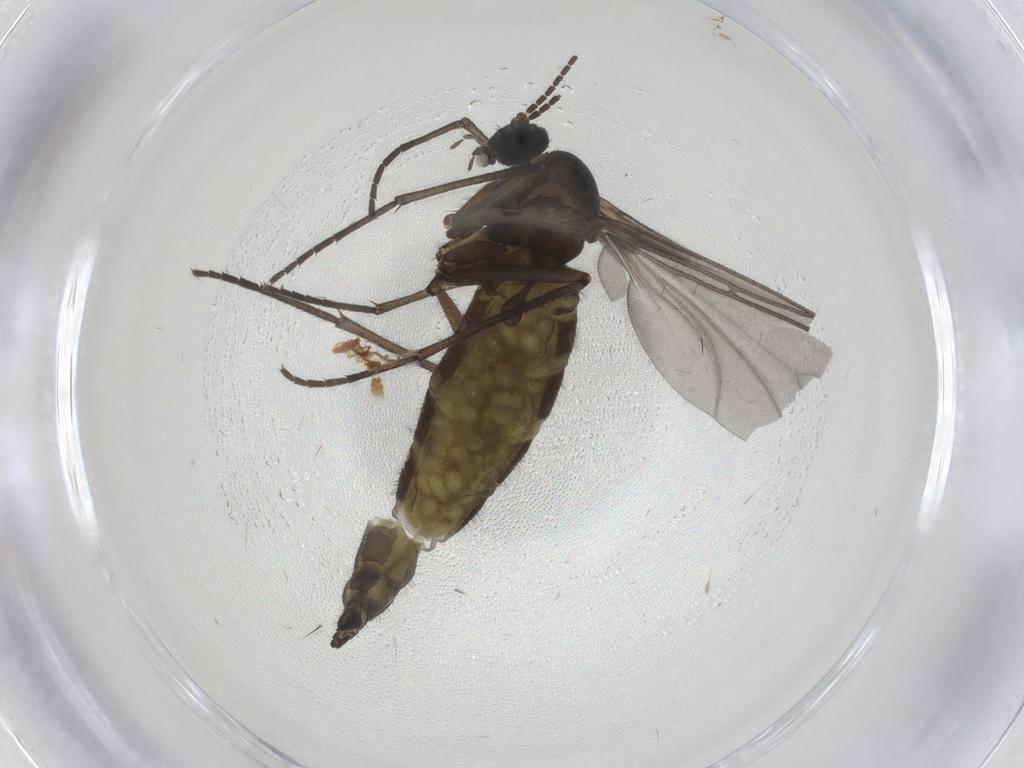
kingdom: Animalia
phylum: Arthropoda
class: Insecta
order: Diptera
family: Sciaridae
